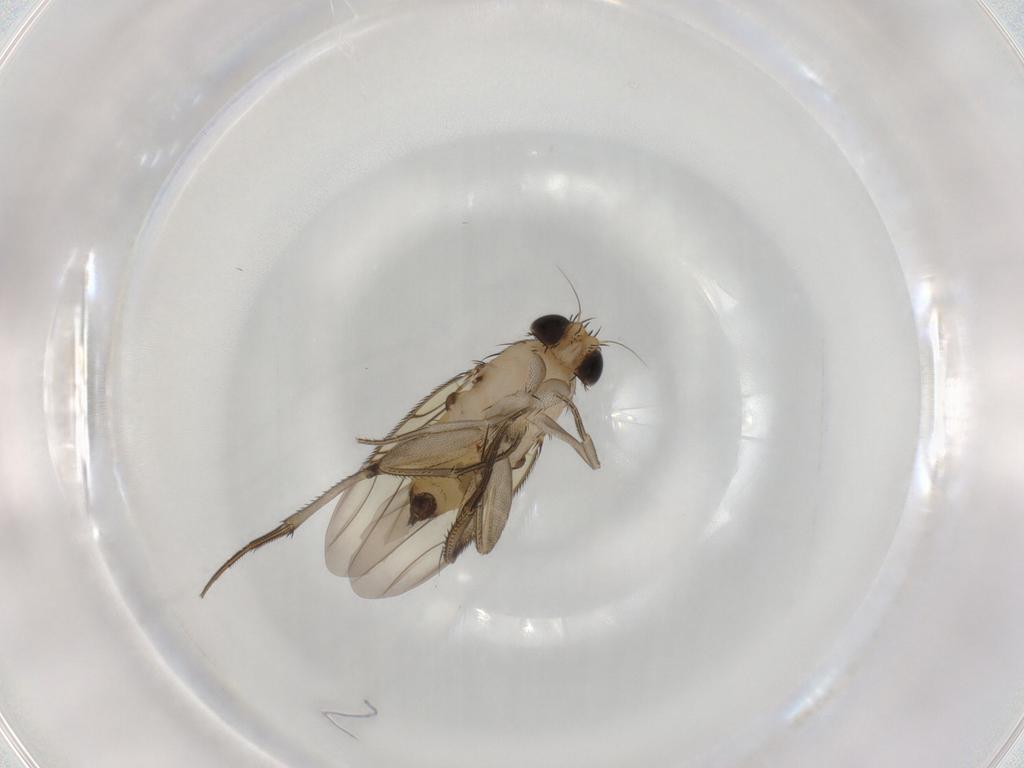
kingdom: Animalia
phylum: Arthropoda
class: Insecta
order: Diptera
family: Phoridae
